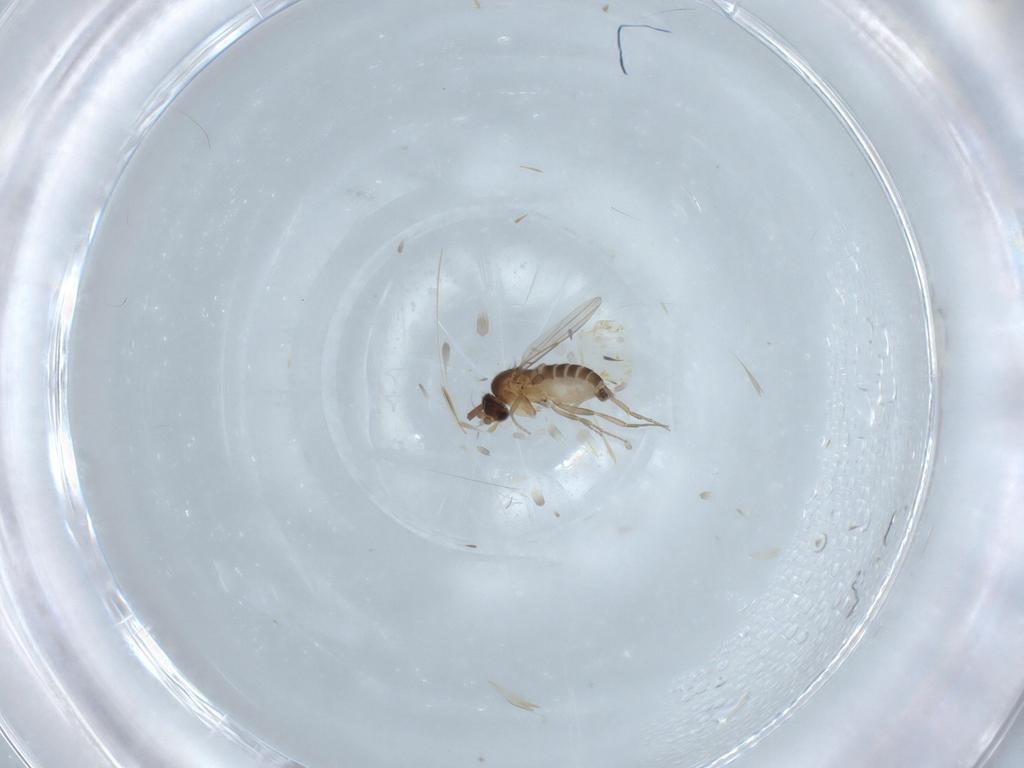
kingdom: Animalia
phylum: Arthropoda
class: Insecta
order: Diptera
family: Phoridae
